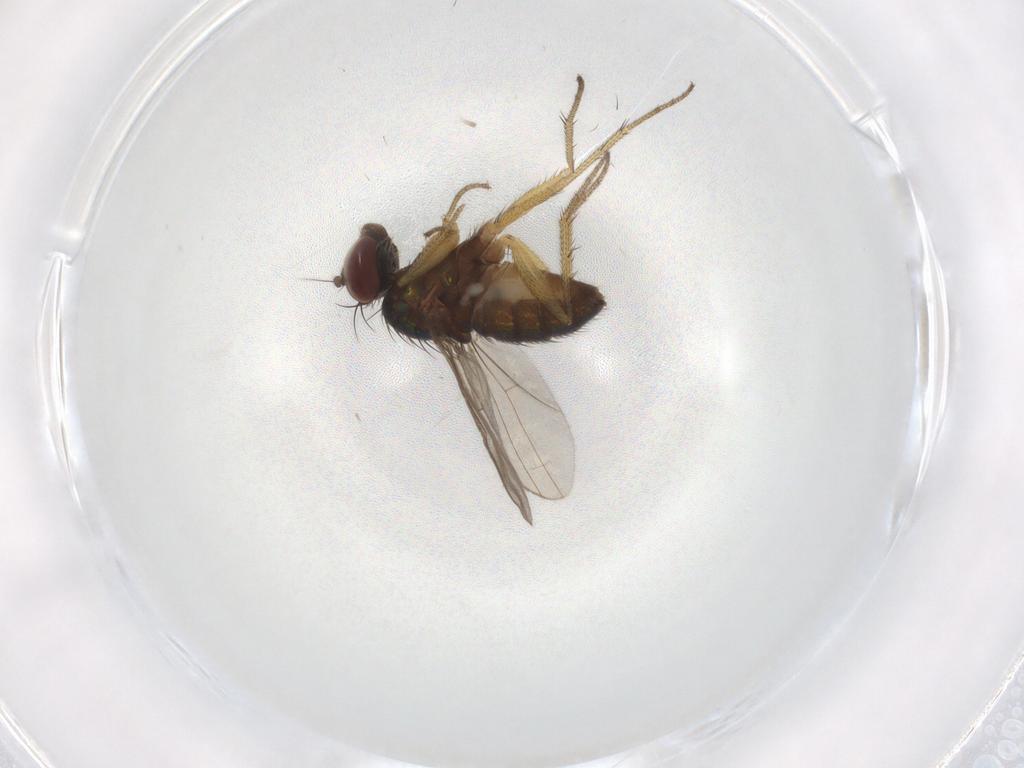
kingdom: Animalia
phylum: Arthropoda
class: Insecta
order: Diptera
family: Dolichopodidae
